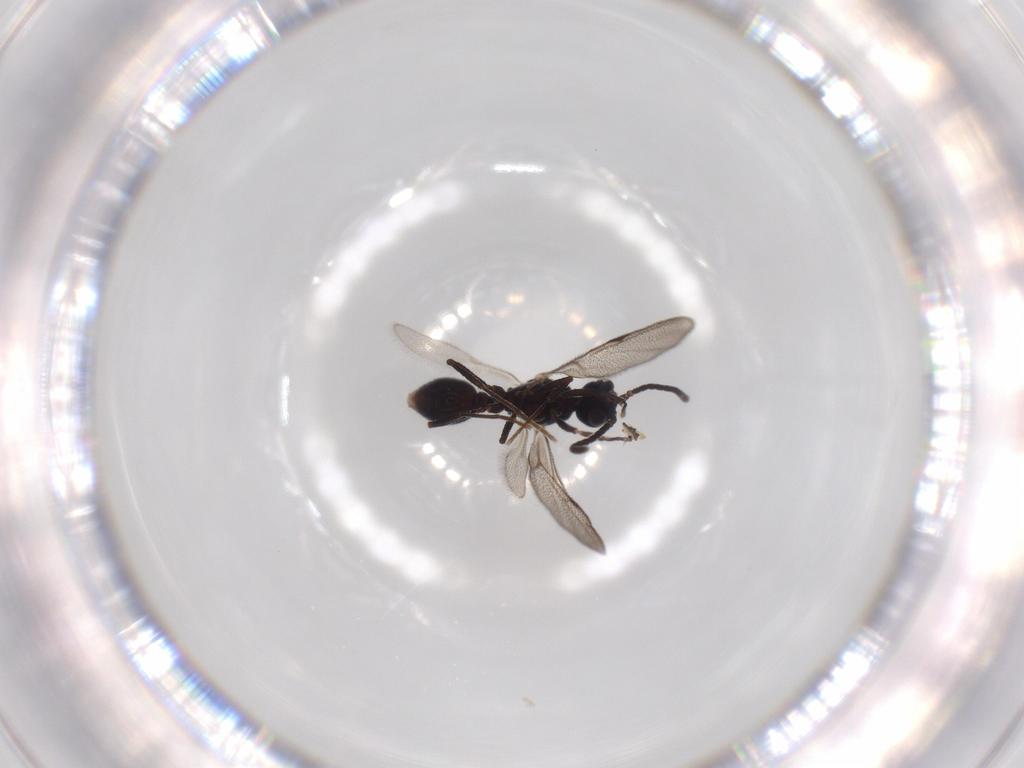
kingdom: Animalia
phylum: Arthropoda
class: Insecta
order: Hymenoptera
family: Formicidae
